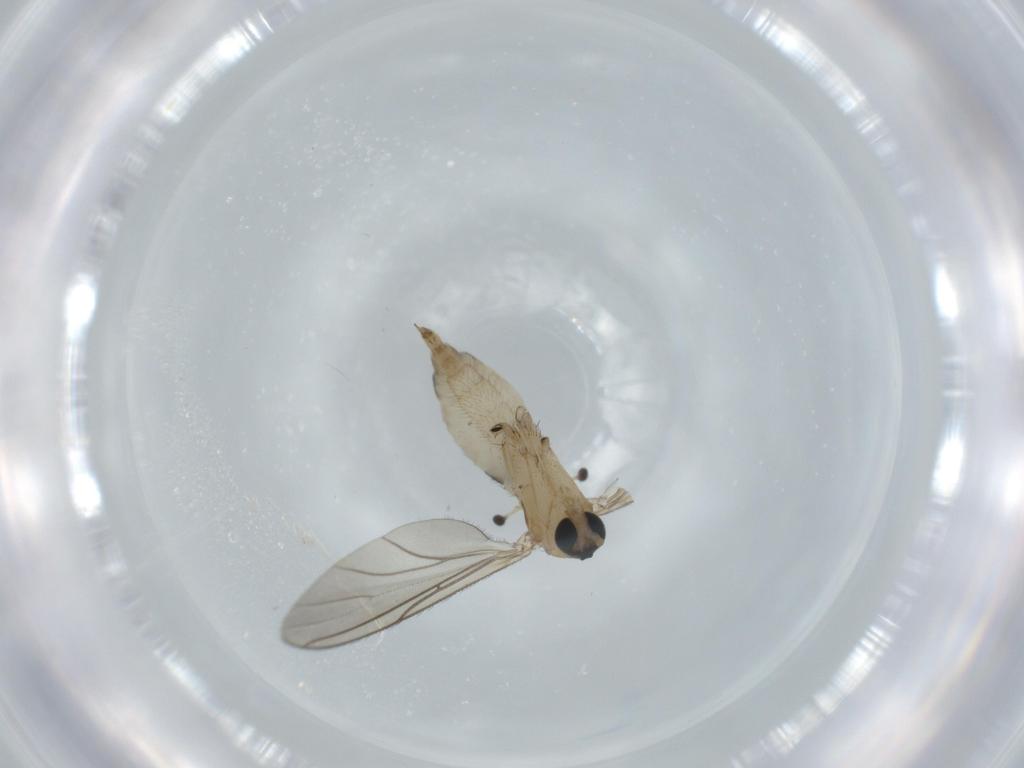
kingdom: Animalia
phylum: Arthropoda
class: Insecta
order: Diptera
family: Sciaridae
